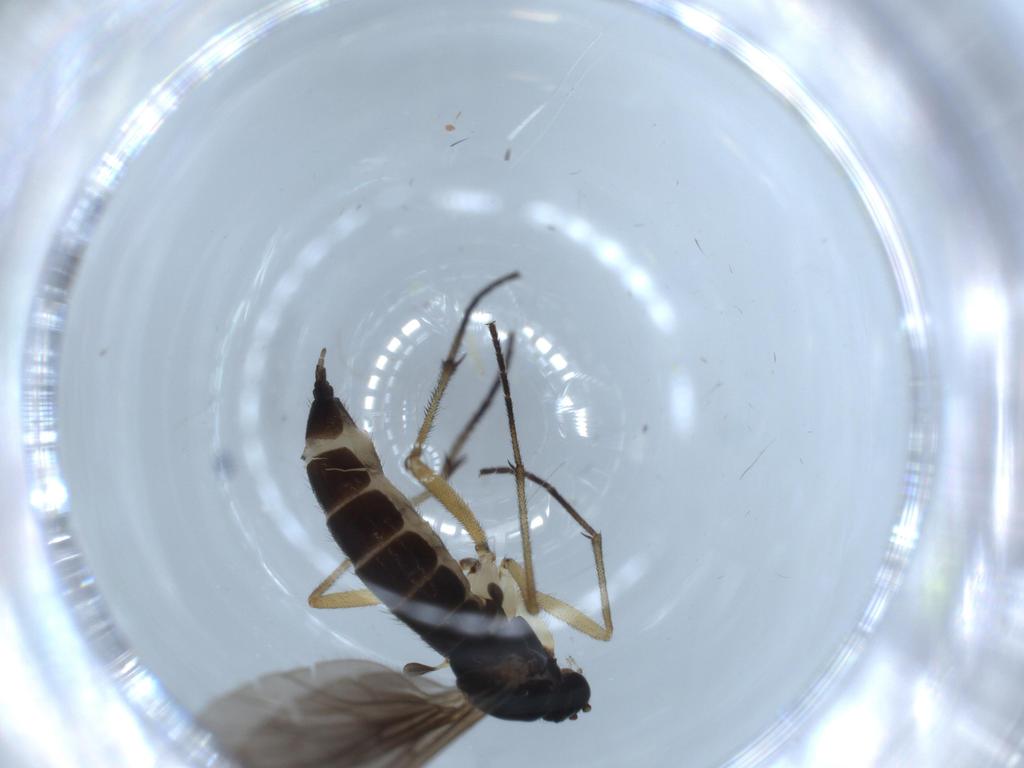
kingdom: Animalia
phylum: Arthropoda
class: Insecta
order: Diptera
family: Sciaridae
